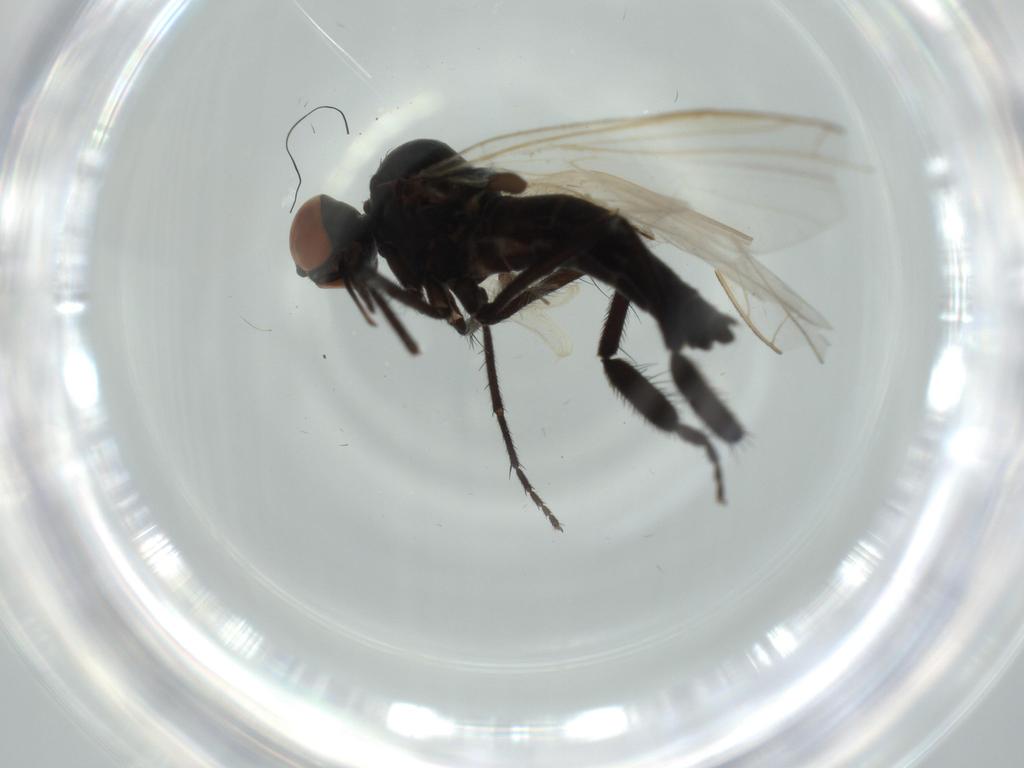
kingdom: Animalia
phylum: Arthropoda
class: Insecta
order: Diptera
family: Empididae
